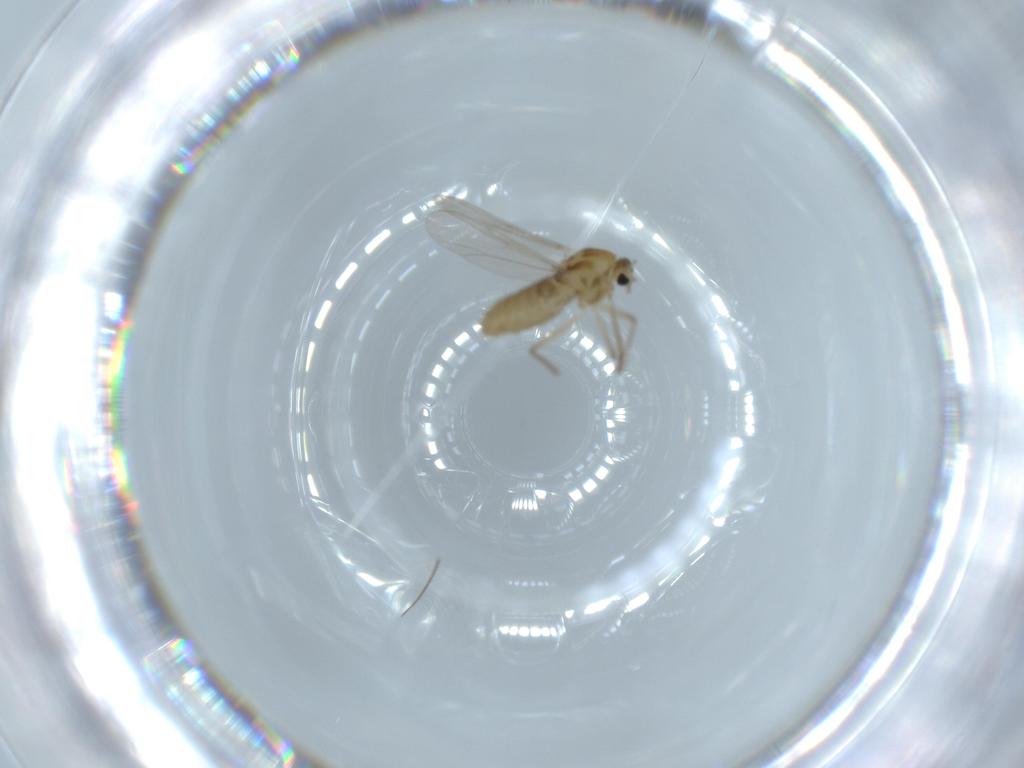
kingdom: Animalia
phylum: Arthropoda
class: Insecta
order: Diptera
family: Chironomidae
